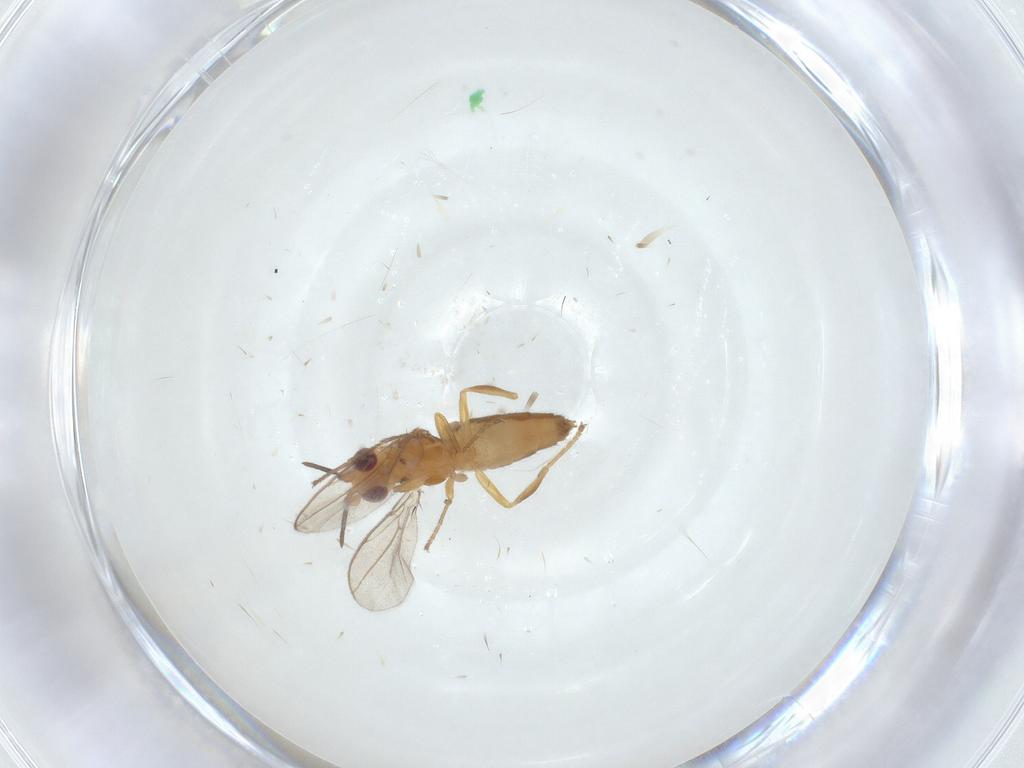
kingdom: Animalia
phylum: Arthropoda
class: Insecta
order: Diptera
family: Chloropidae
